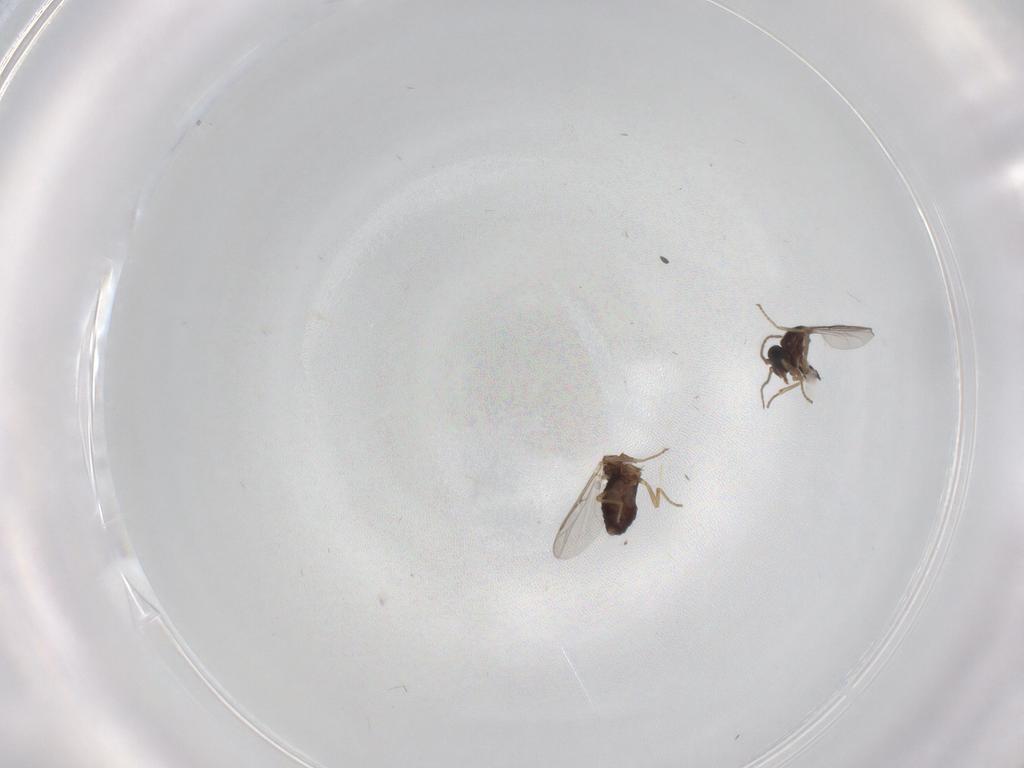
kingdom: Animalia
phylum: Arthropoda
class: Insecta
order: Diptera
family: Ceratopogonidae
